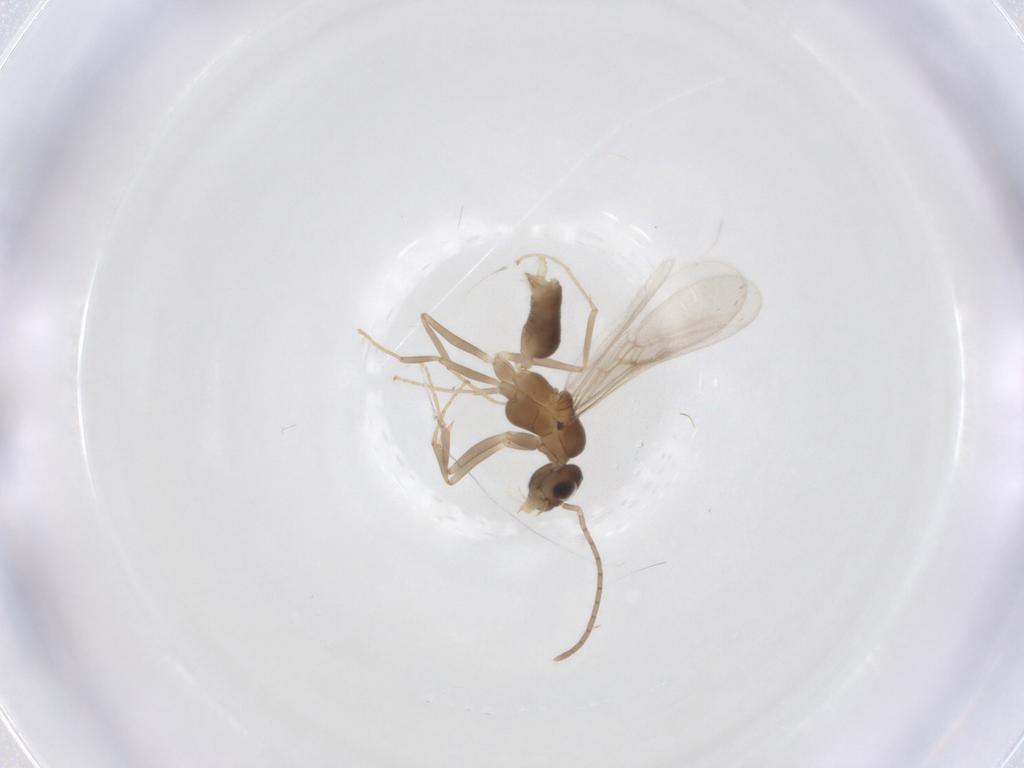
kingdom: Animalia
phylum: Arthropoda
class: Insecta
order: Hymenoptera
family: Formicidae
